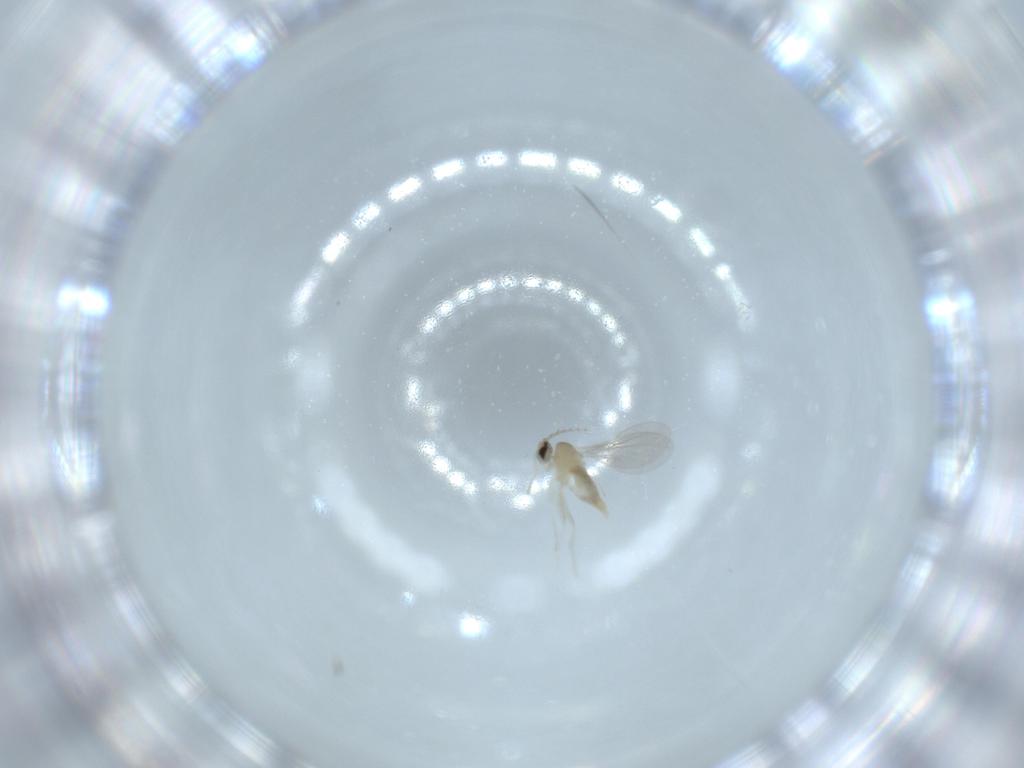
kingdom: Animalia
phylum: Arthropoda
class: Insecta
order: Diptera
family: Cecidomyiidae
